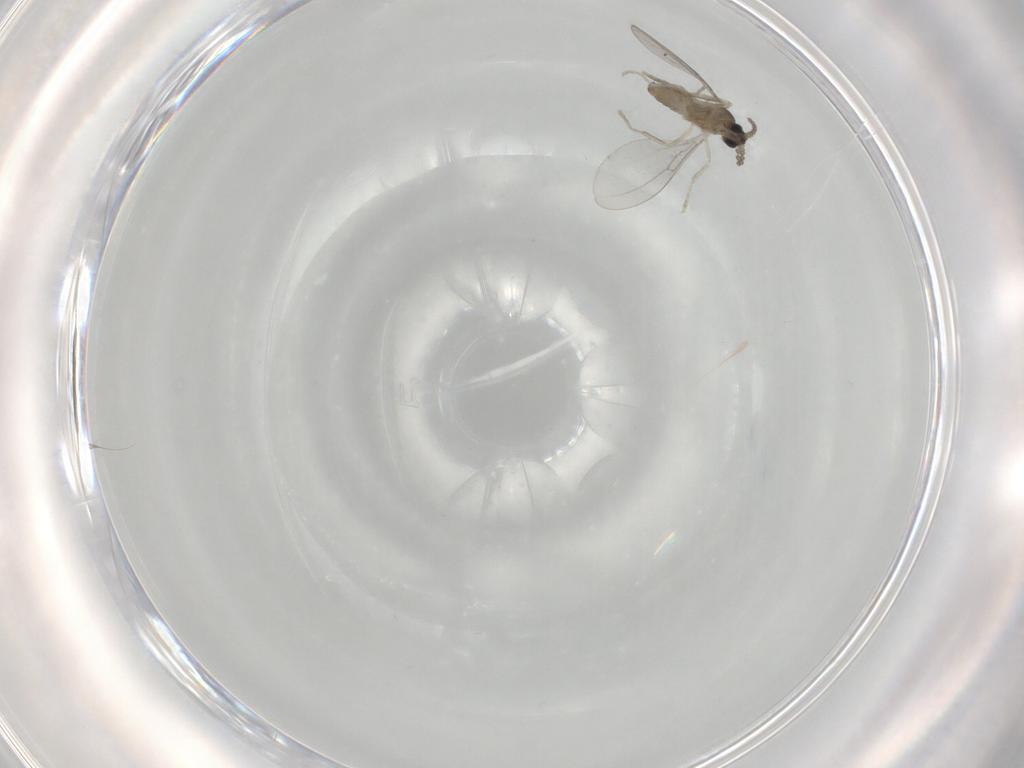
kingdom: Animalia
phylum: Arthropoda
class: Insecta
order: Diptera
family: Cecidomyiidae
